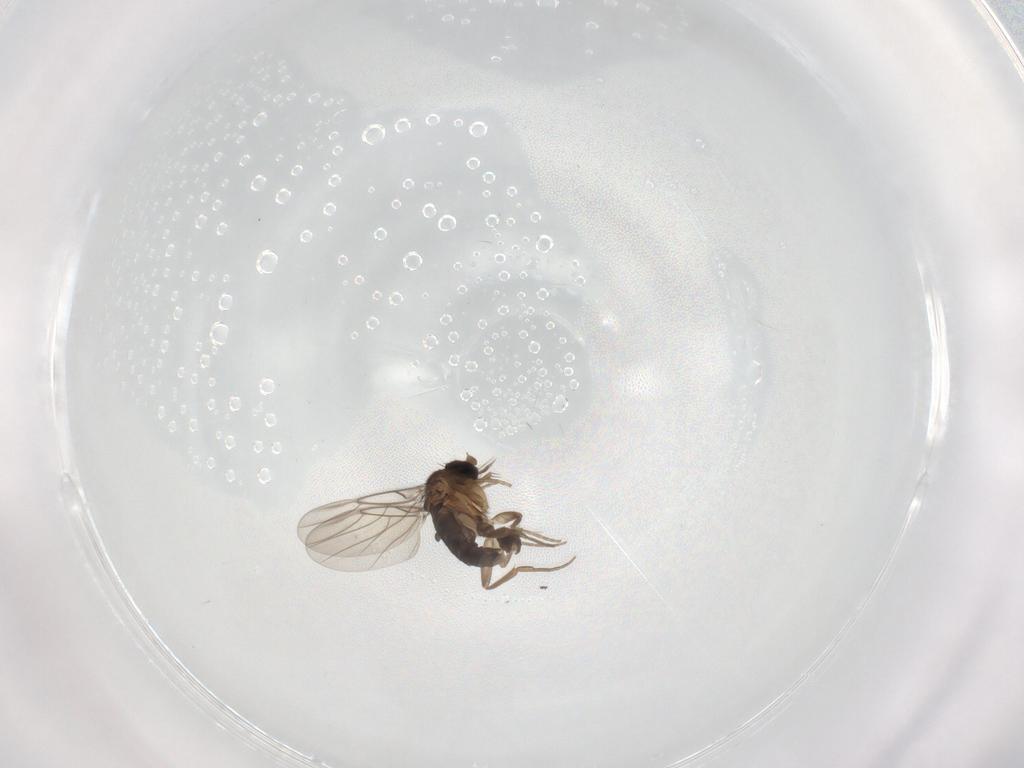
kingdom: Animalia
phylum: Arthropoda
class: Insecta
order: Diptera
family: Phoridae
